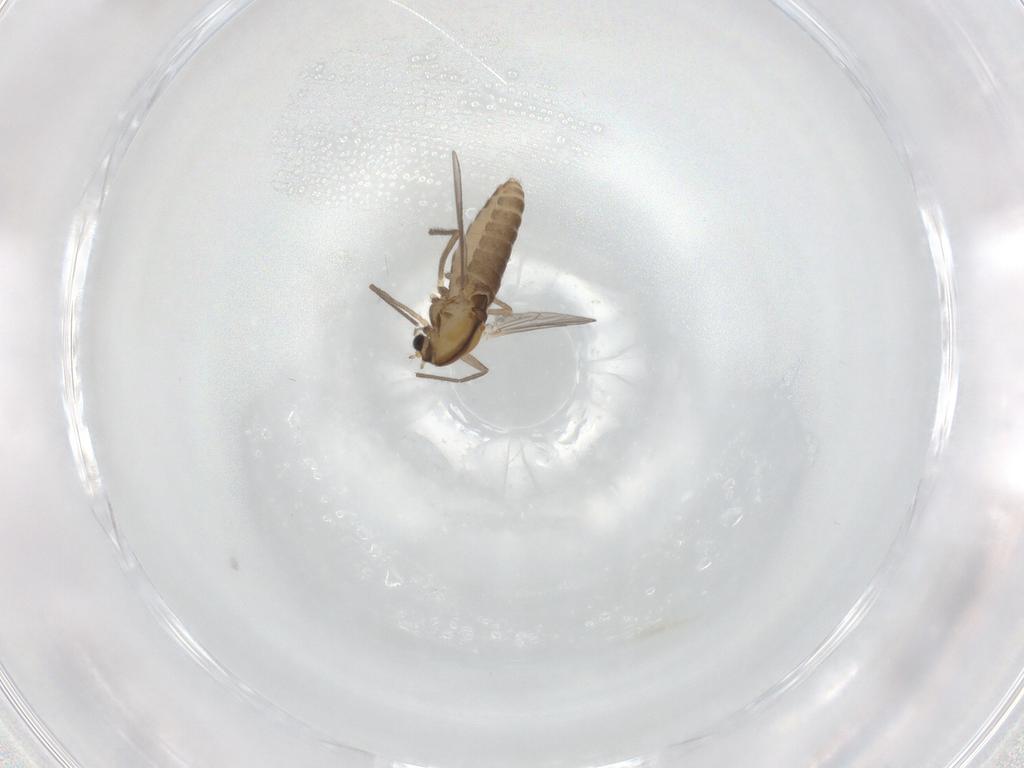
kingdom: Animalia
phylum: Arthropoda
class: Insecta
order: Diptera
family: Chironomidae
